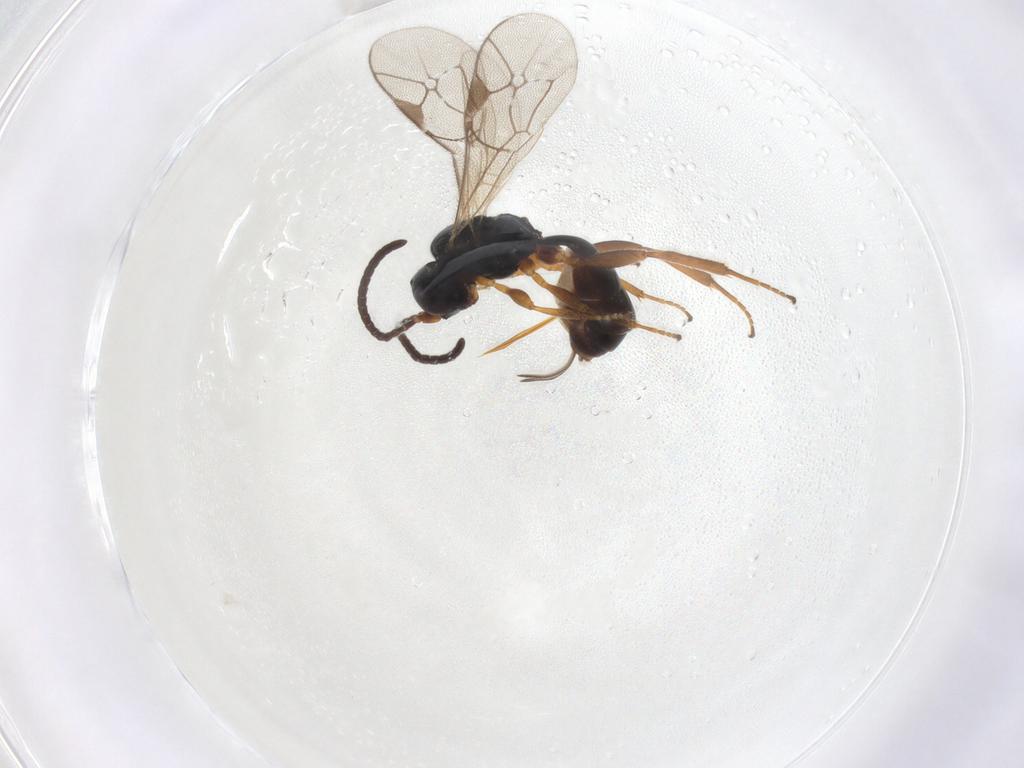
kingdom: Animalia
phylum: Arthropoda
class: Insecta
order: Hymenoptera
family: Ichneumonidae
